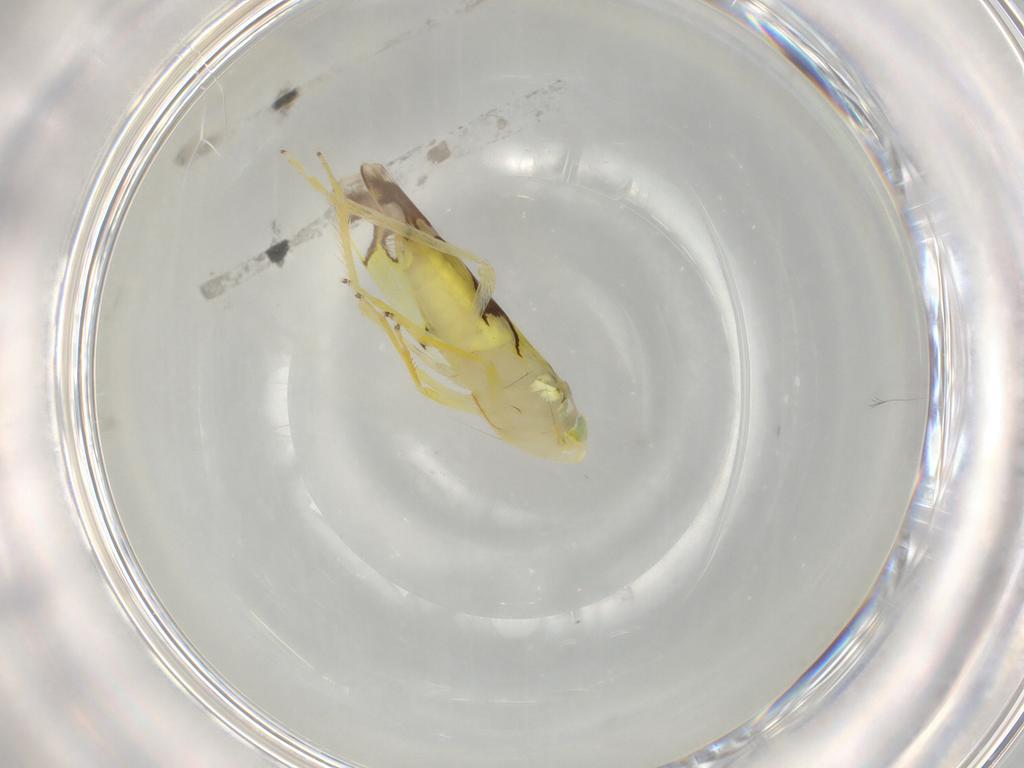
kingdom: Animalia
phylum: Arthropoda
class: Insecta
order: Hemiptera
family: Cicadellidae
